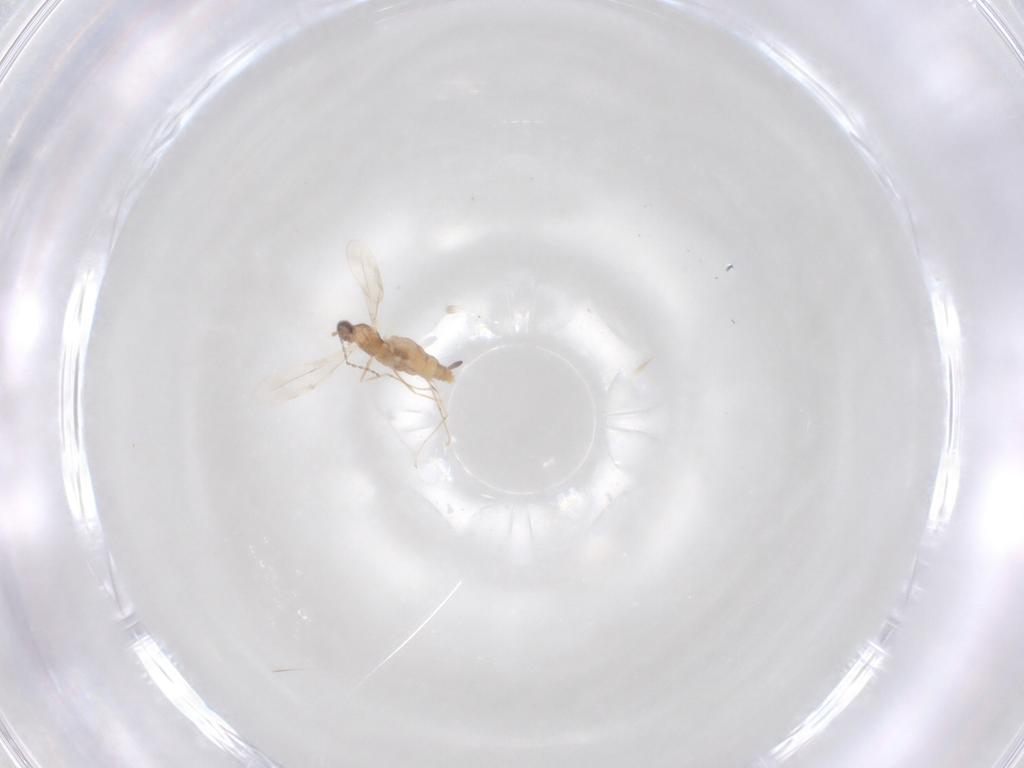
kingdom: Animalia
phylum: Arthropoda
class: Insecta
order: Diptera
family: Cecidomyiidae
